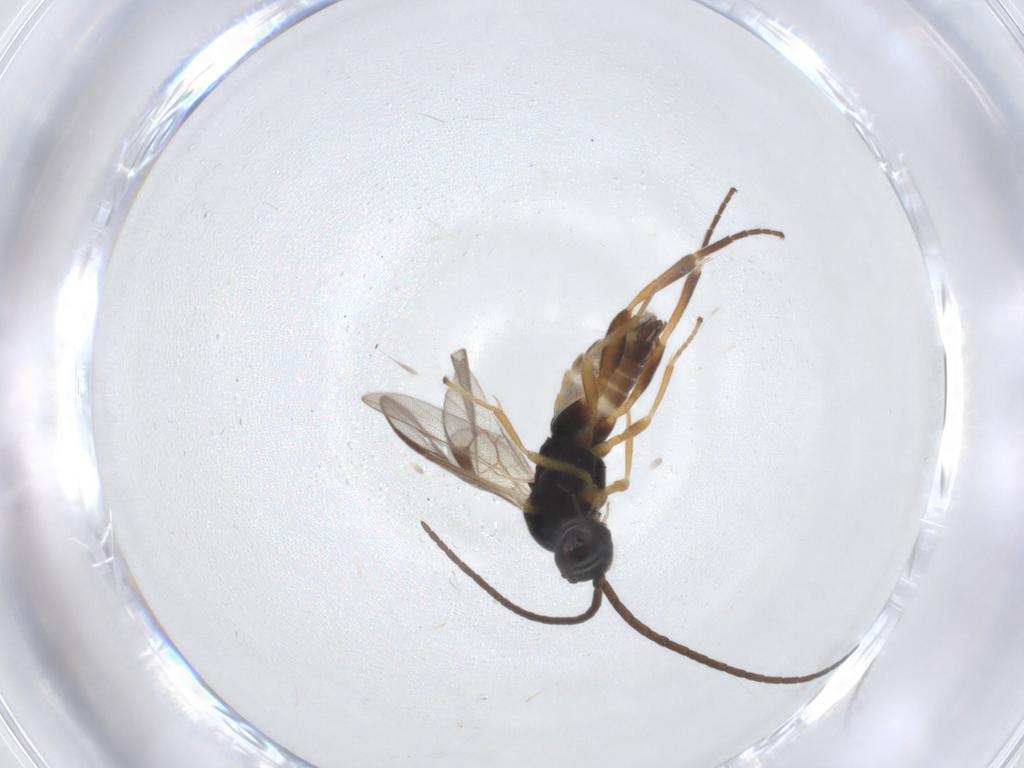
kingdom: Animalia
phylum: Arthropoda
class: Insecta
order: Hymenoptera
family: Braconidae
